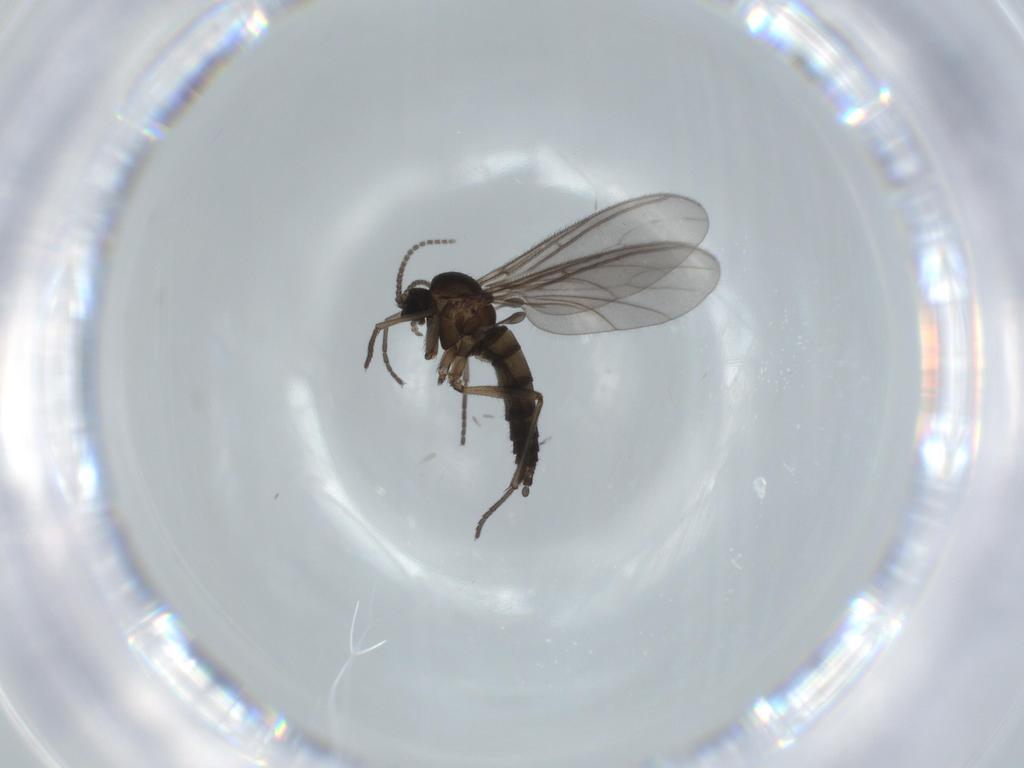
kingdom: Animalia
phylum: Arthropoda
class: Insecta
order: Diptera
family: Sciaridae
